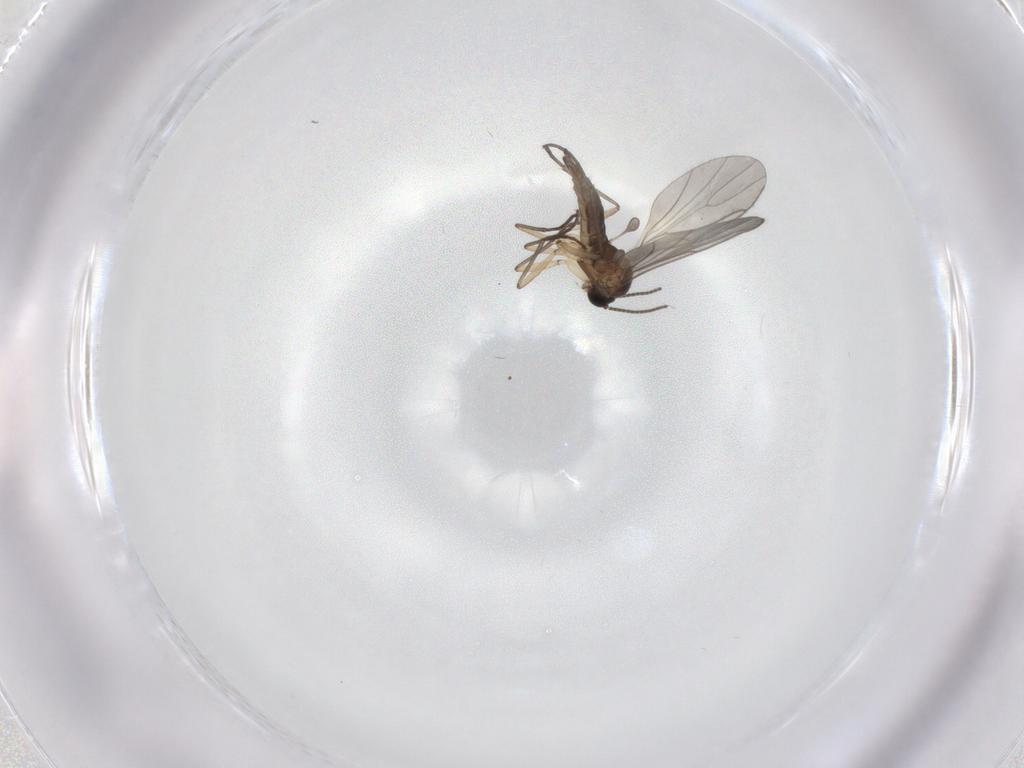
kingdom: Animalia
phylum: Arthropoda
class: Insecta
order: Diptera
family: Chironomidae
